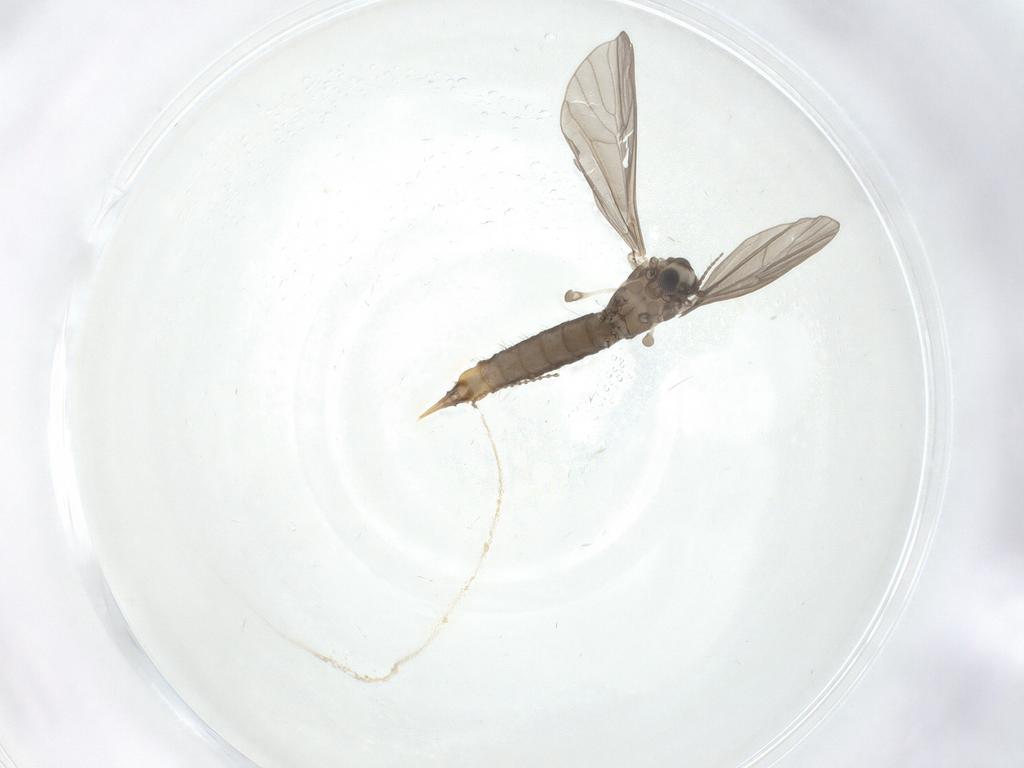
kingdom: Animalia
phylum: Arthropoda
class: Insecta
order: Diptera
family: Limoniidae
